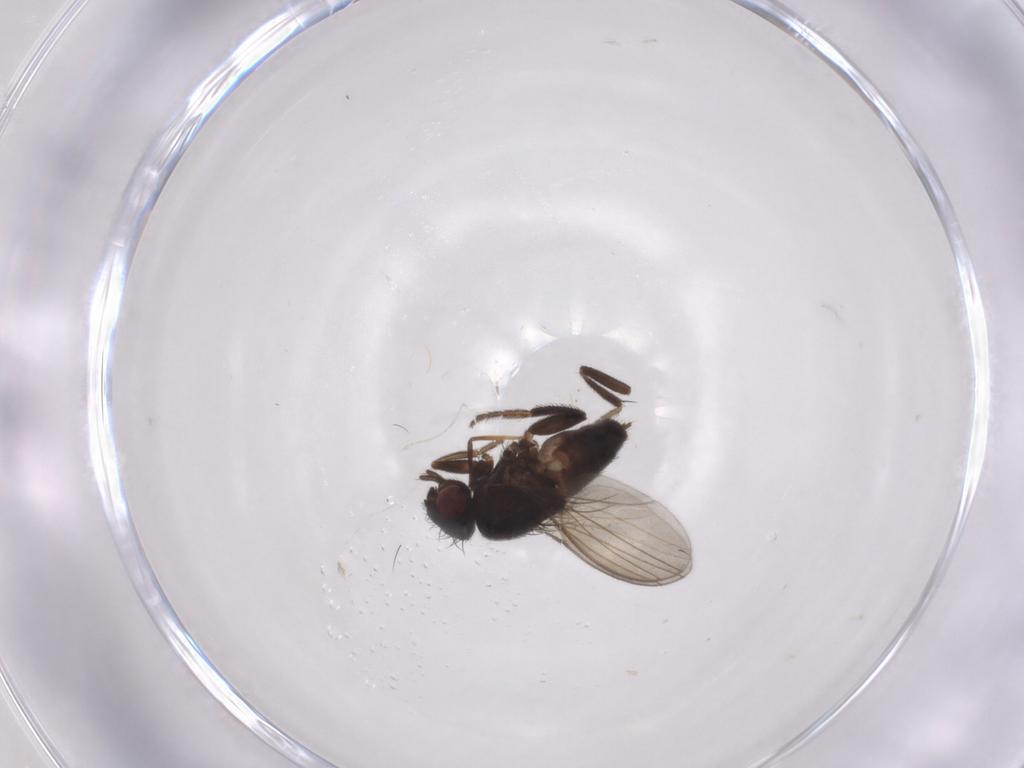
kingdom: Animalia
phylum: Arthropoda
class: Insecta
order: Diptera
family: Milichiidae
